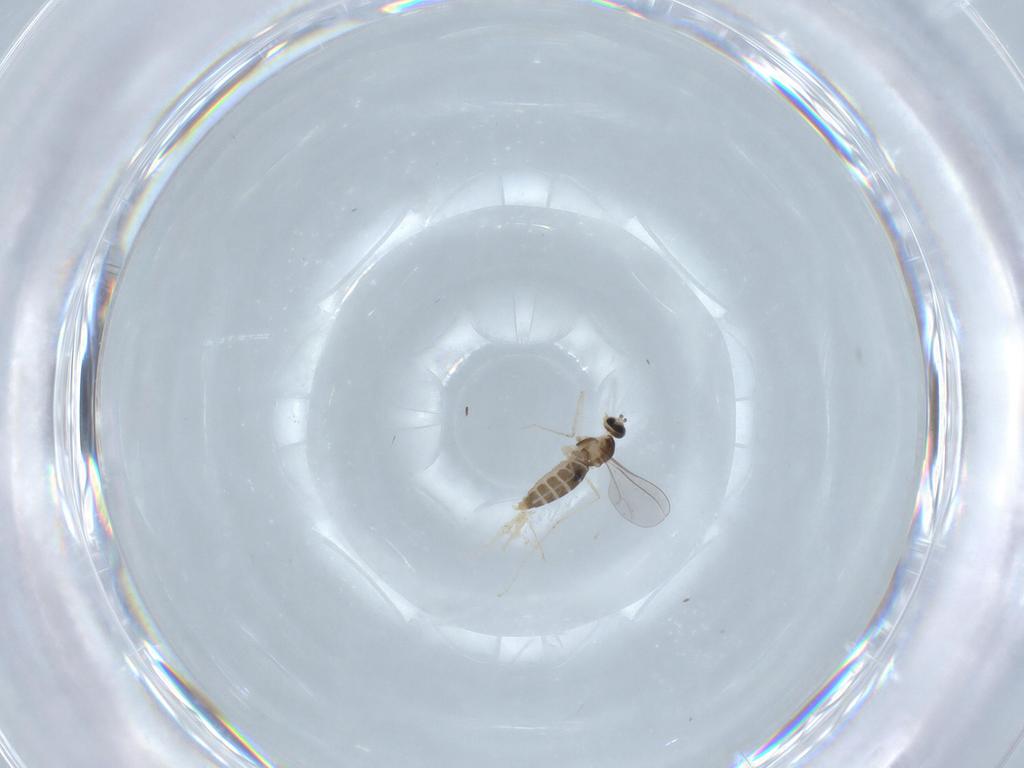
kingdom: Animalia
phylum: Arthropoda
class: Insecta
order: Diptera
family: Cecidomyiidae
